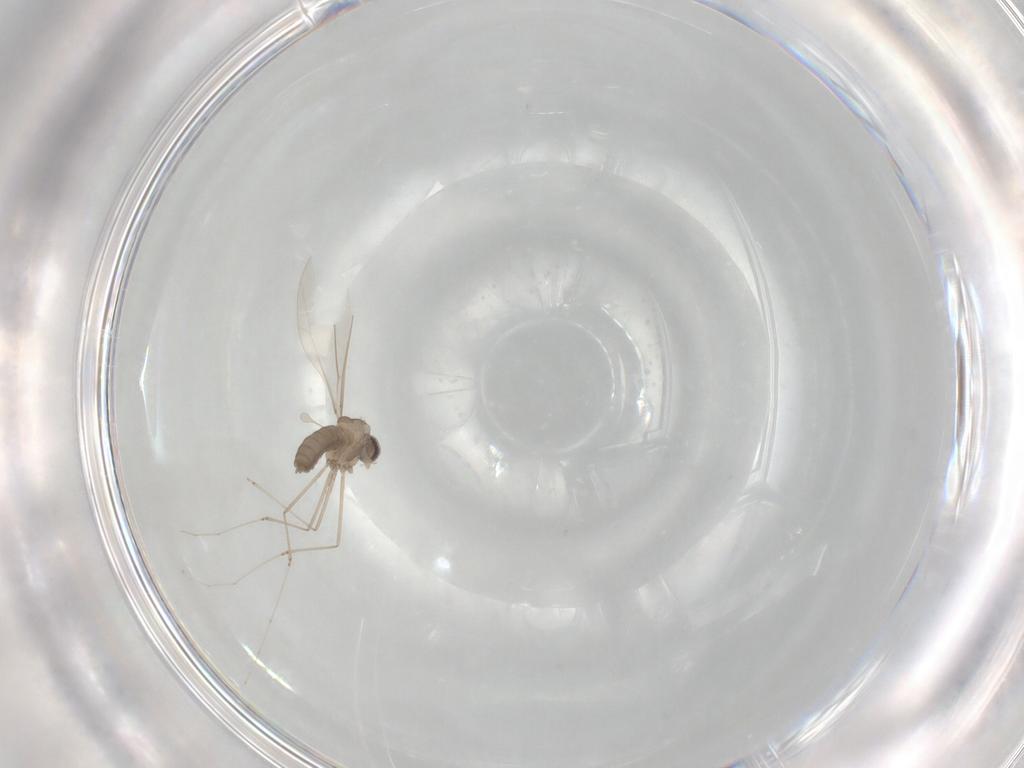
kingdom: Animalia
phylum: Arthropoda
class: Insecta
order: Diptera
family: Cecidomyiidae
